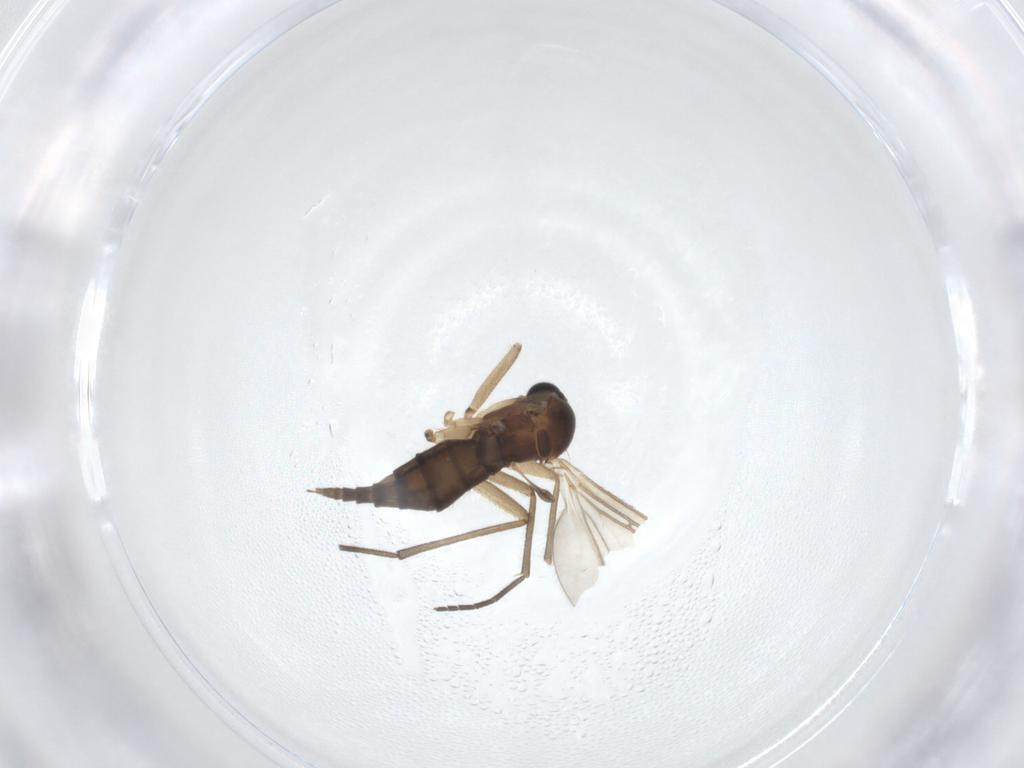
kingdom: Animalia
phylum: Arthropoda
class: Insecta
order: Diptera
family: Sciaridae
